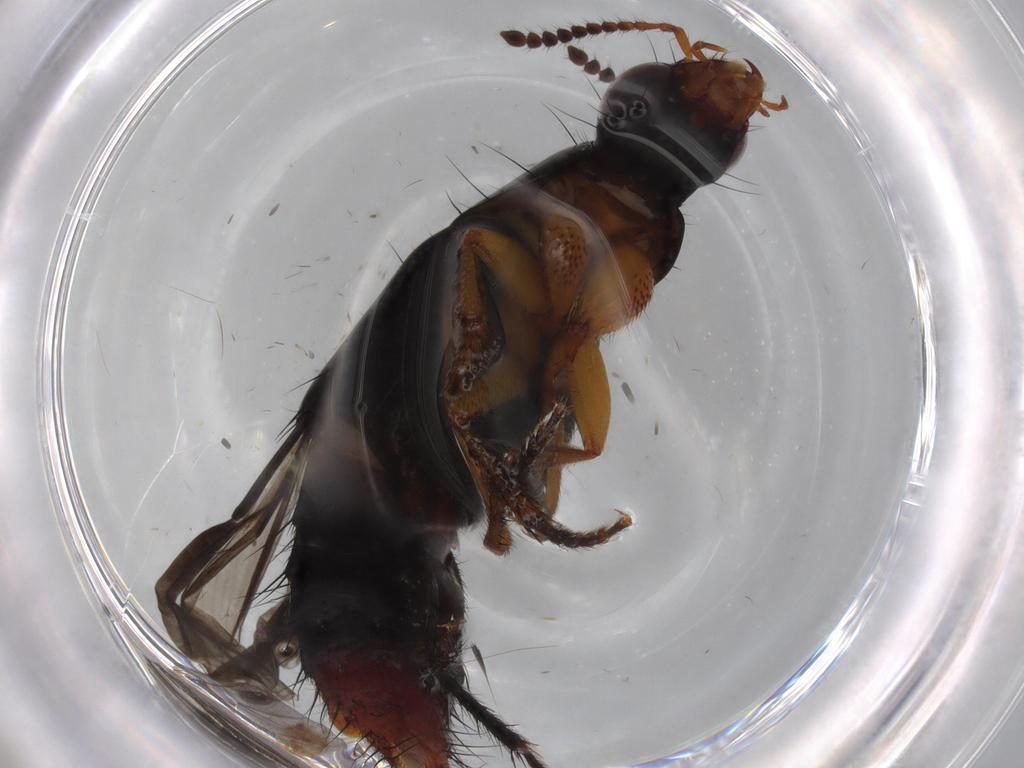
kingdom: Animalia
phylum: Arthropoda
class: Insecta
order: Coleoptera
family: Staphylinidae
